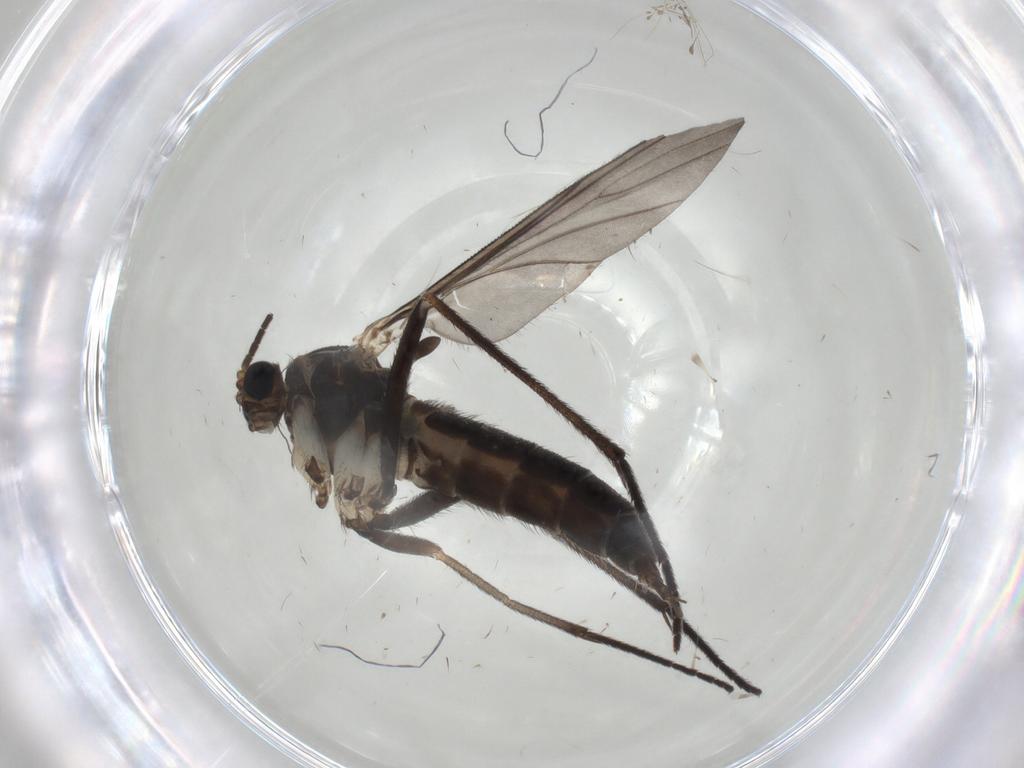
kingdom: Animalia
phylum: Arthropoda
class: Insecta
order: Diptera
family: Sciaridae
